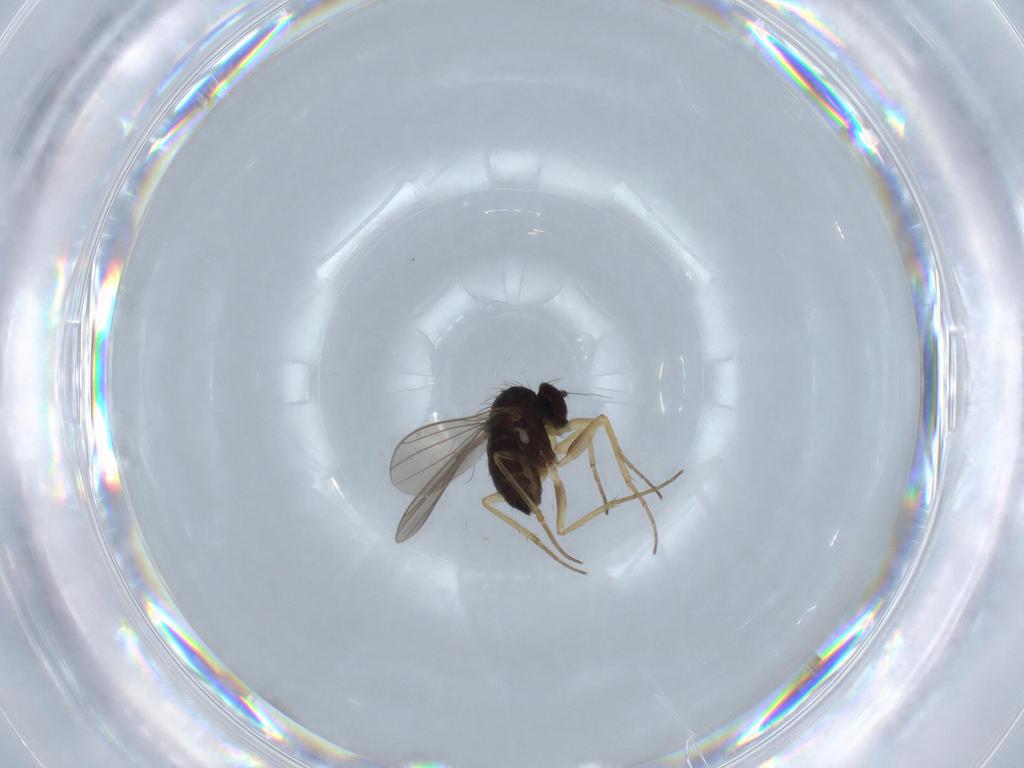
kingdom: Animalia
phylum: Arthropoda
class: Insecta
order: Diptera
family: Dolichopodidae
